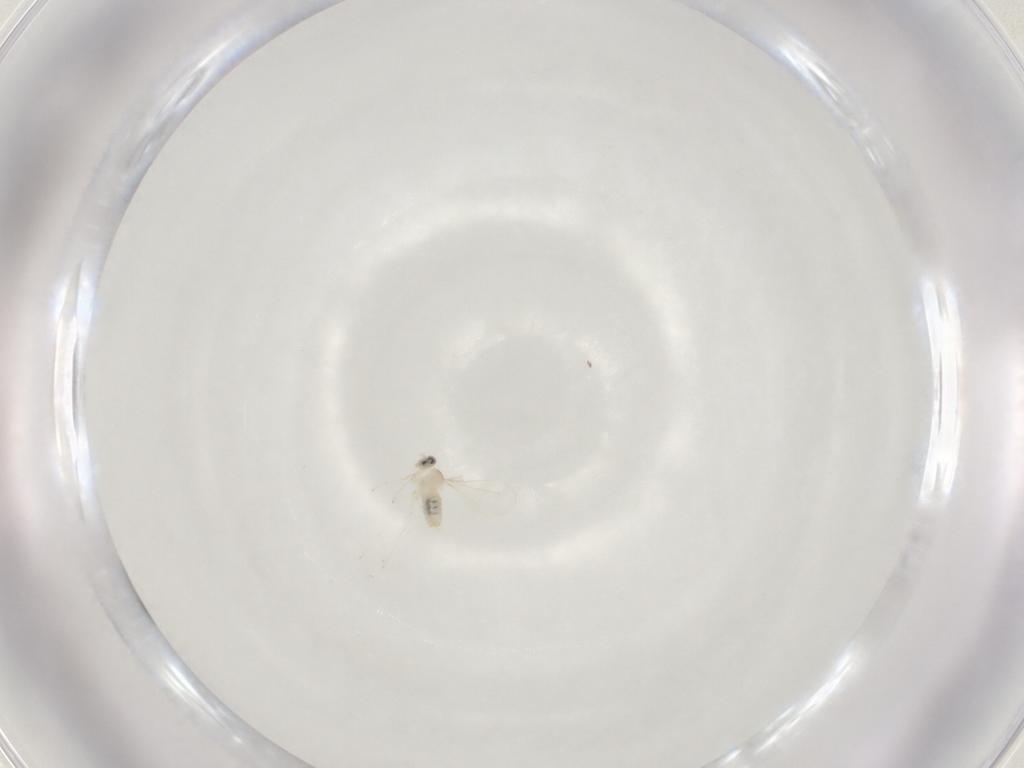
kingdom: Animalia
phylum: Arthropoda
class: Insecta
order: Diptera
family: Cecidomyiidae
